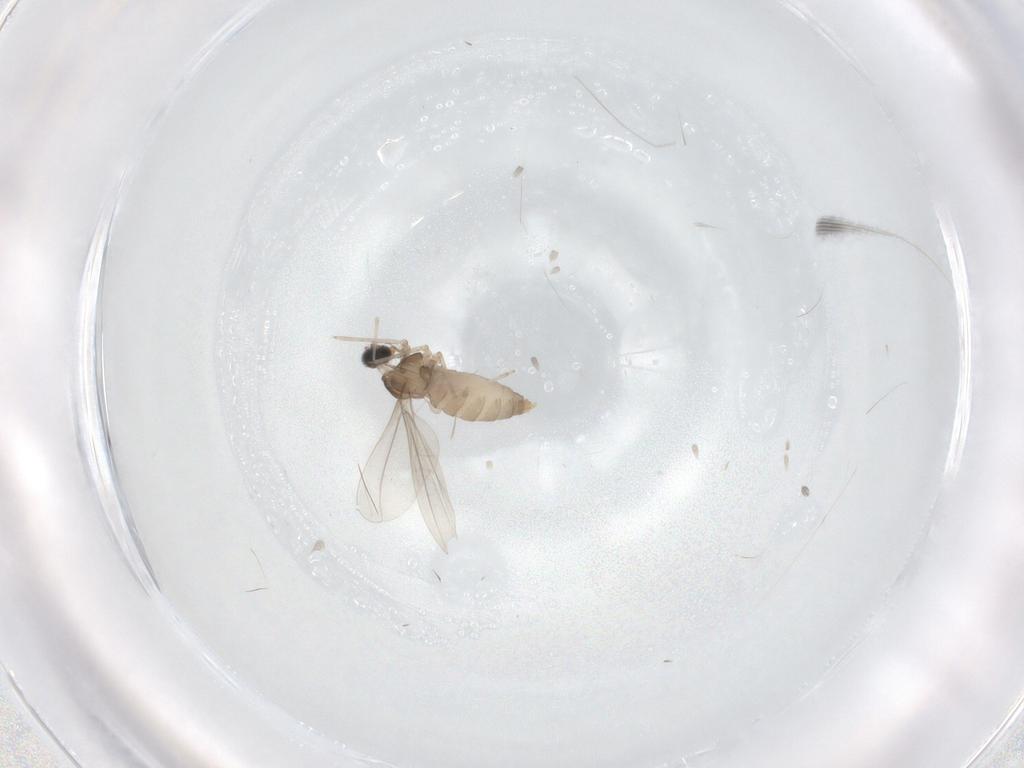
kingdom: Animalia
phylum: Arthropoda
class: Insecta
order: Diptera
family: Cecidomyiidae
